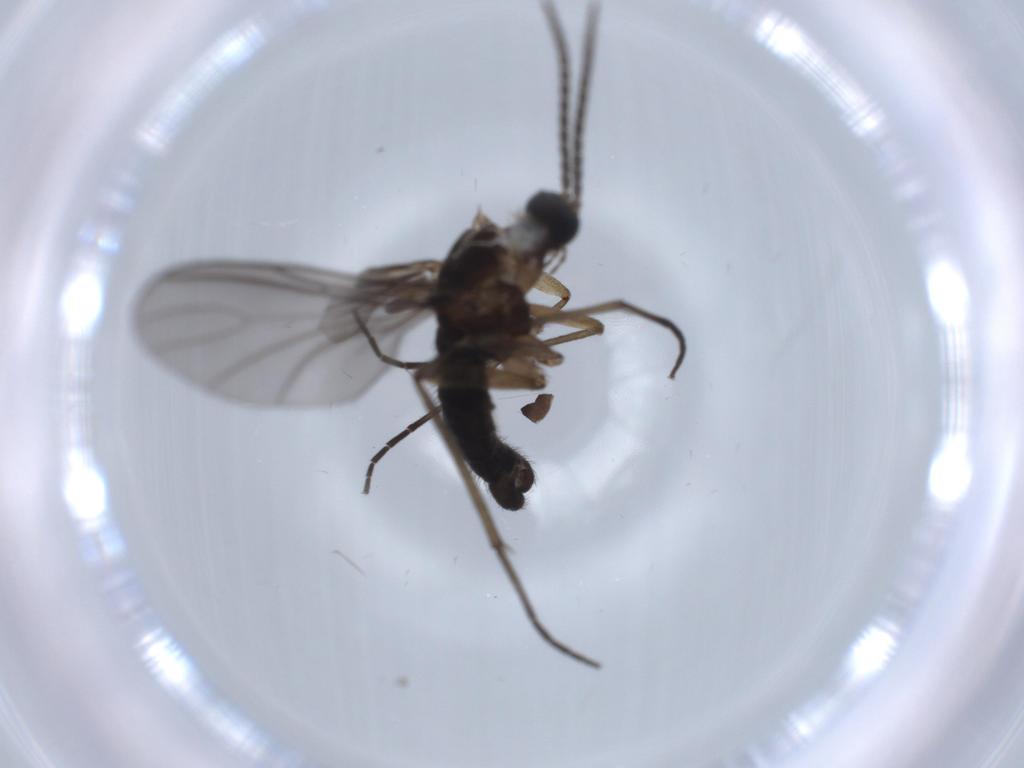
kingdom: Animalia
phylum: Arthropoda
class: Insecta
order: Diptera
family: Sciaridae
